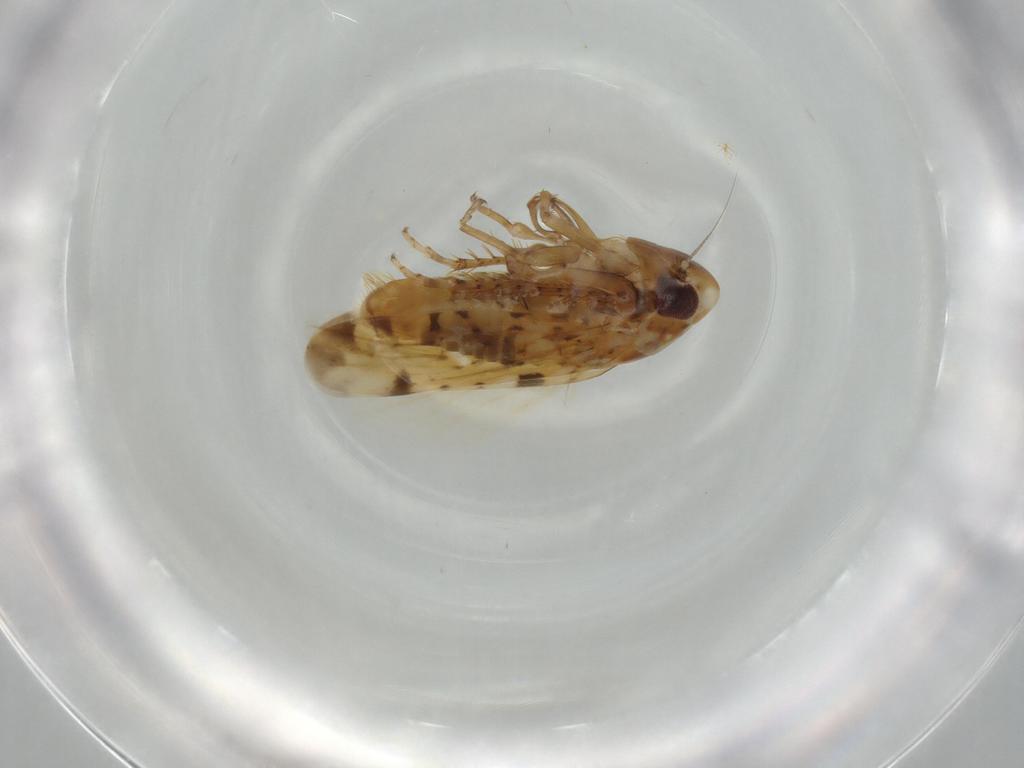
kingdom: Animalia
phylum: Arthropoda
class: Insecta
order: Hemiptera
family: Cicadellidae
